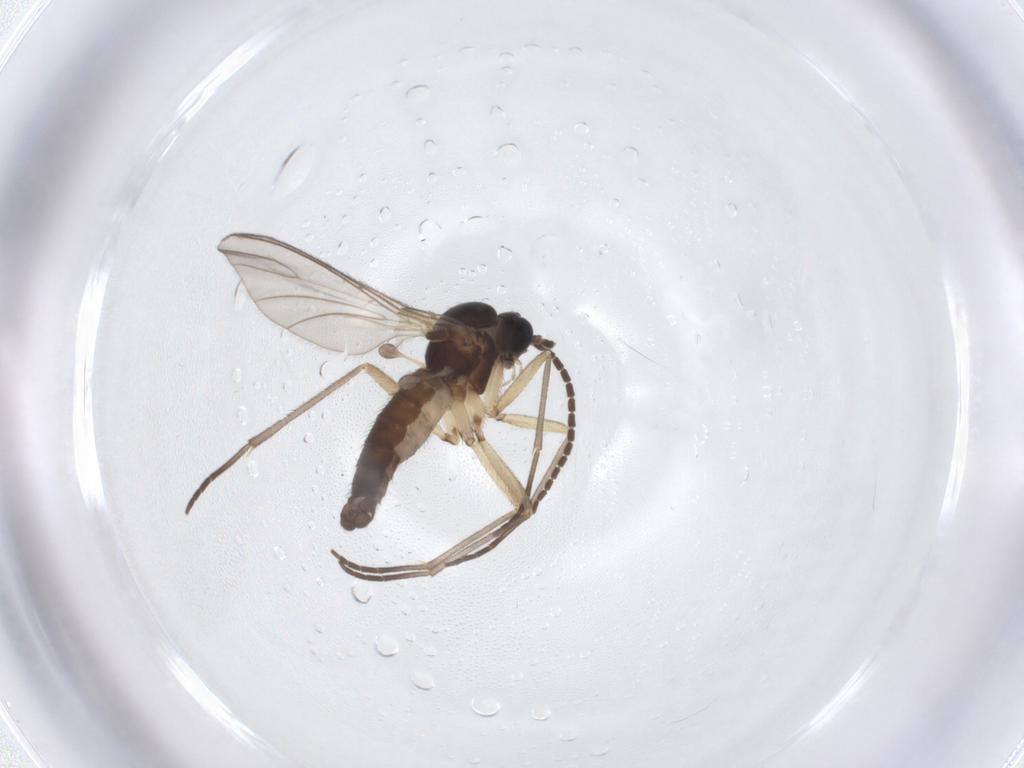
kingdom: Animalia
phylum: Arthropoda
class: Insecta
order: Diptera
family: Sciaridae
